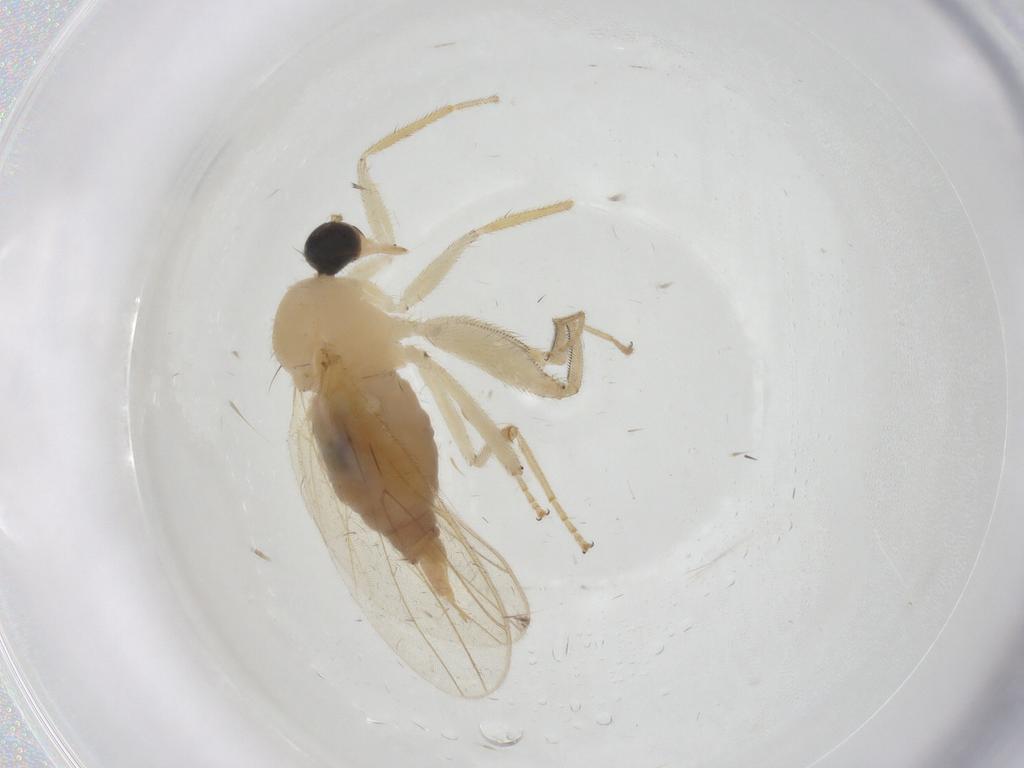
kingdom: Animalia
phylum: Arthropoda
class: Insecta
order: Diptera
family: Hybotidae
